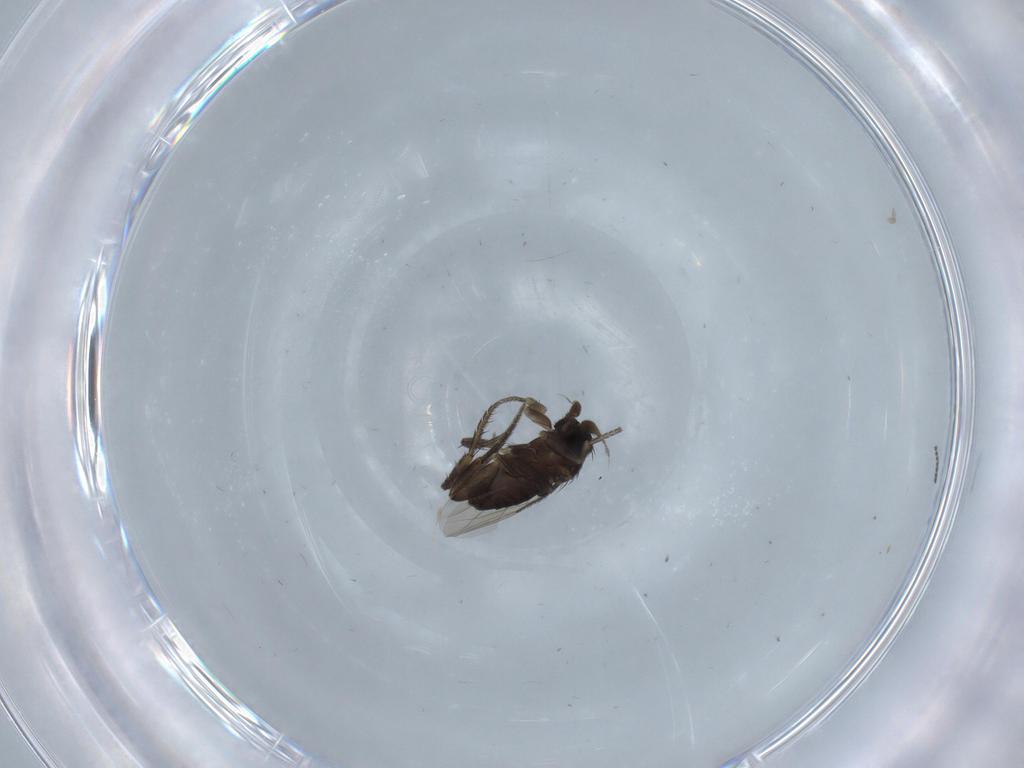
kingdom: Animalia
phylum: Arthropoda
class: Insecta
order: Diptera
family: Phoridae
